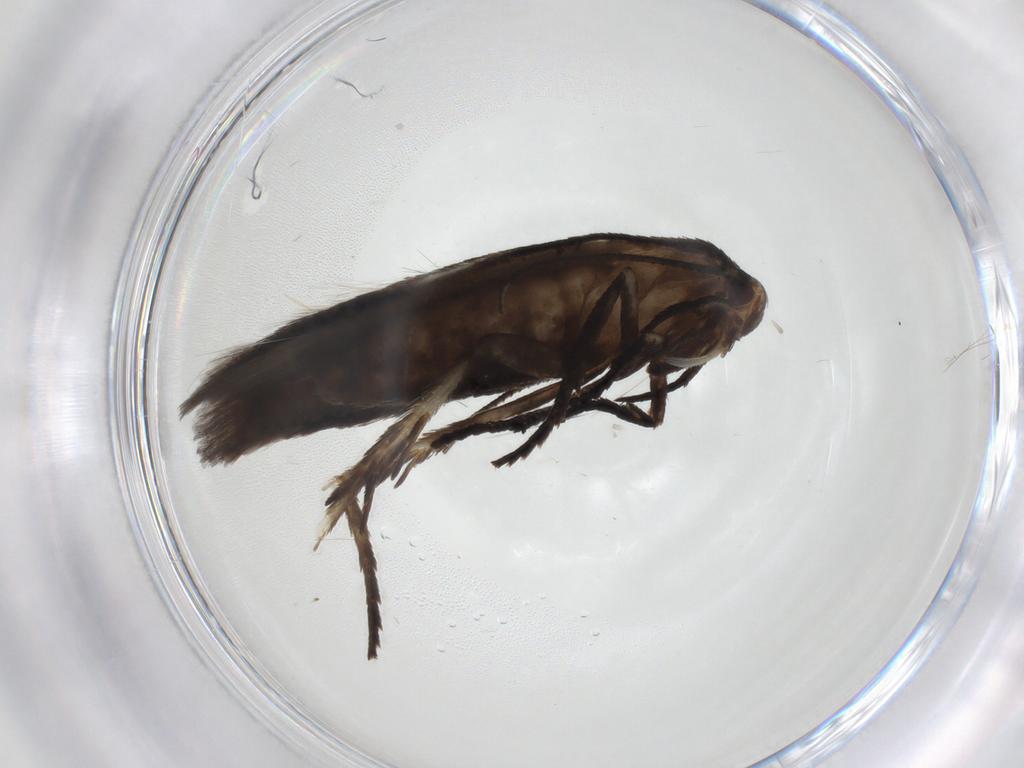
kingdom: Animalia
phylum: Arthropoda
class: Insecta
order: Lepidoptera
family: Cosmopterigidae
